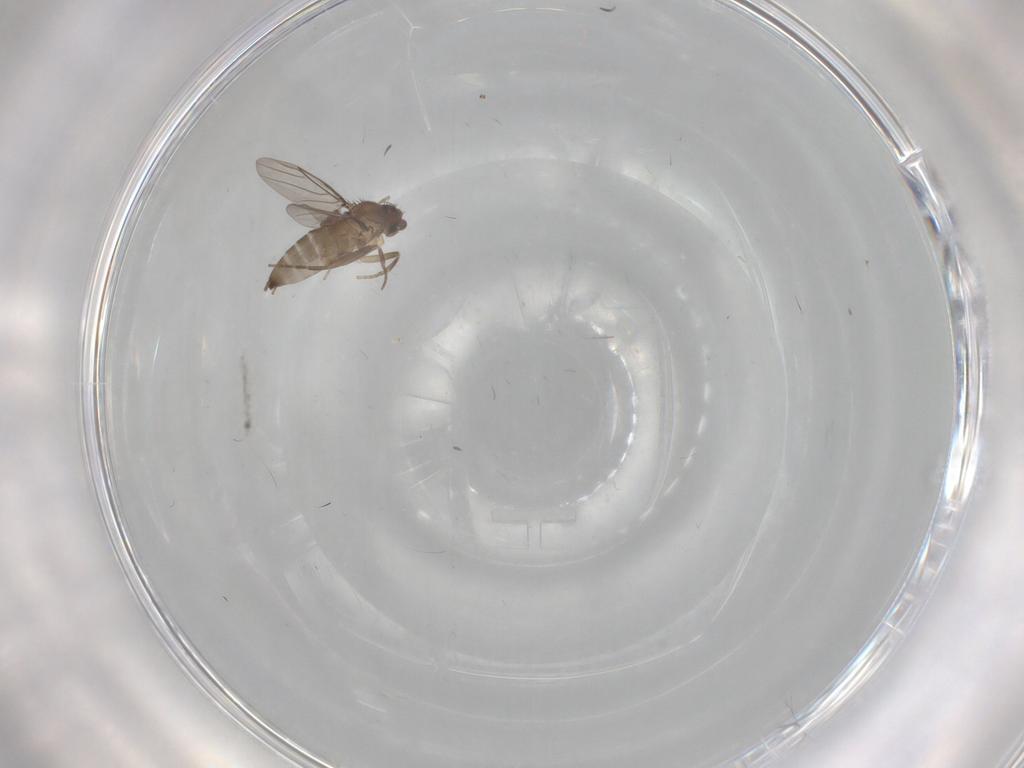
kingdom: Animalia
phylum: Arthropoda
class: Insecta
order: Diptera
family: Cecidomyiidae
